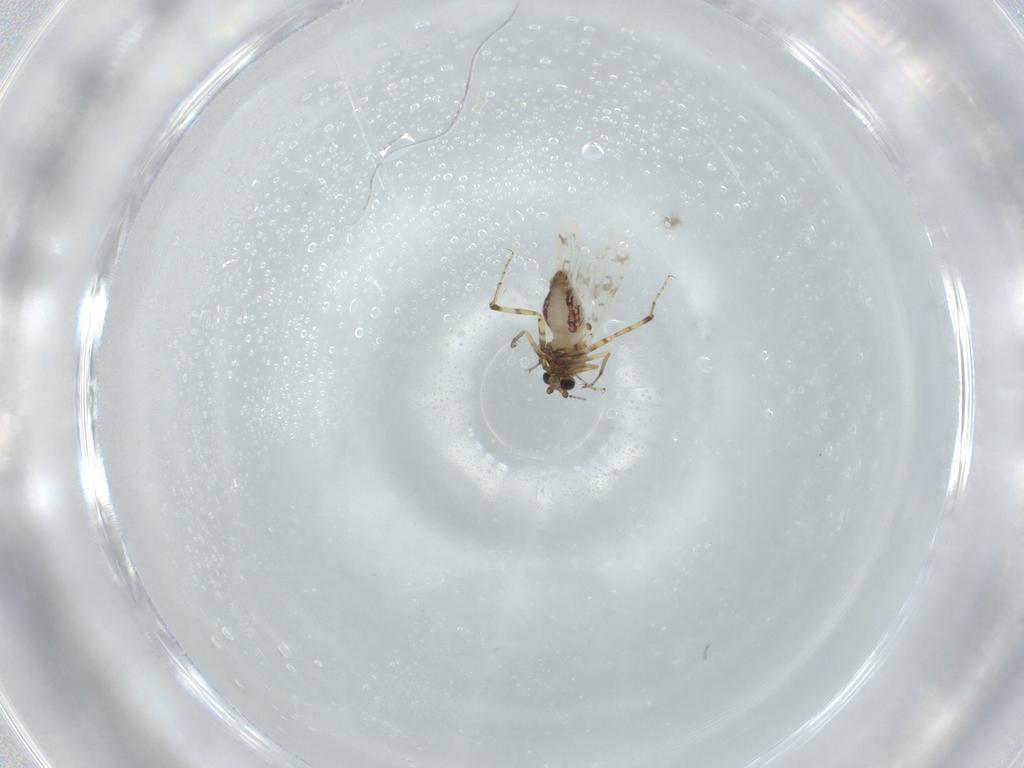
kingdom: Animalia
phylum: Arthropoda
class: Insecta
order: Diptera
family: Ceratopogonidae
